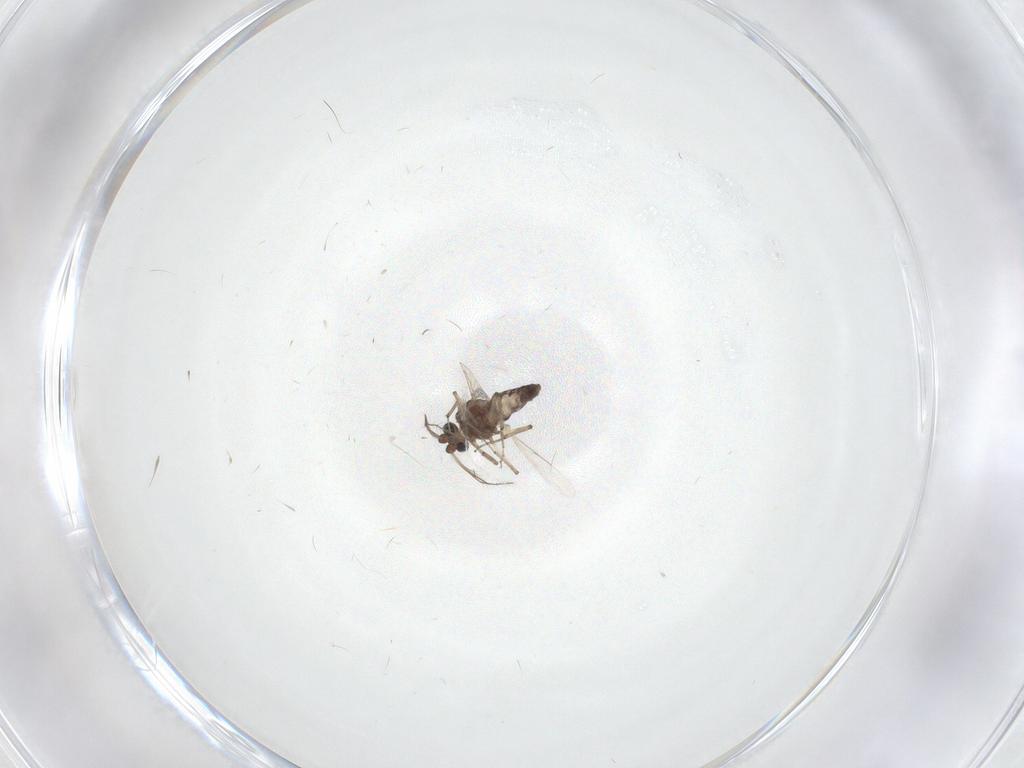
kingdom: Animalia
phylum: Arthropoda
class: Insecta
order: Diptera
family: Ceratopogonidae
